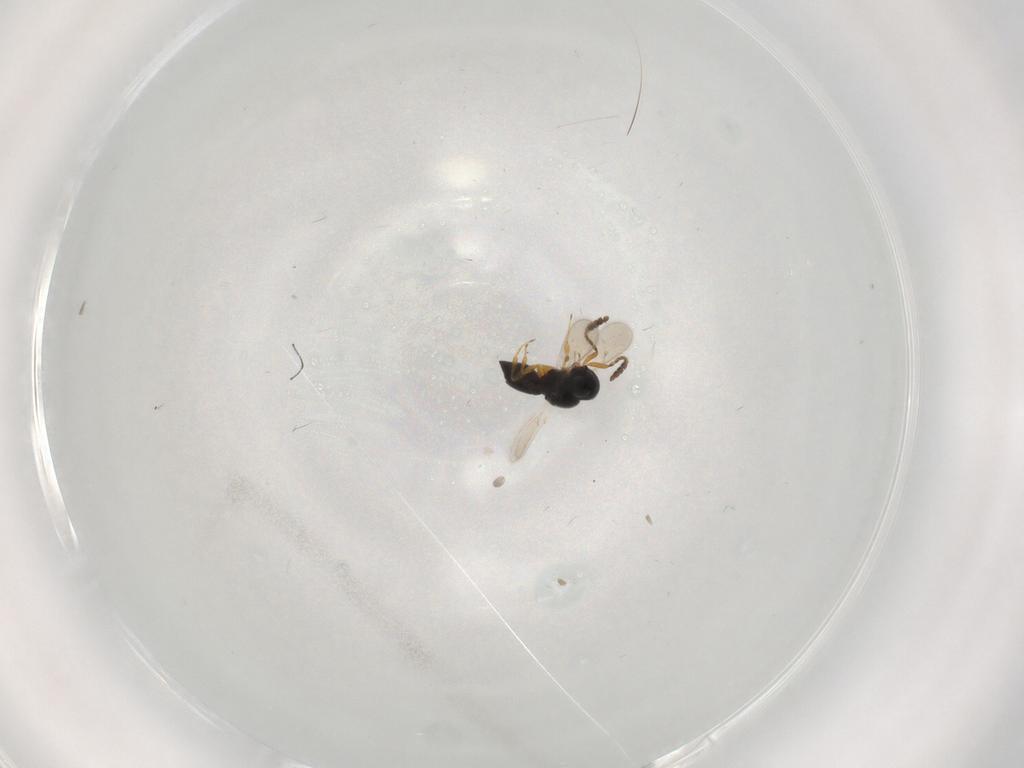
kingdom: Animalia
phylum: Arthropoda
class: Insecta
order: Hymenoptera
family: Scelionidae
